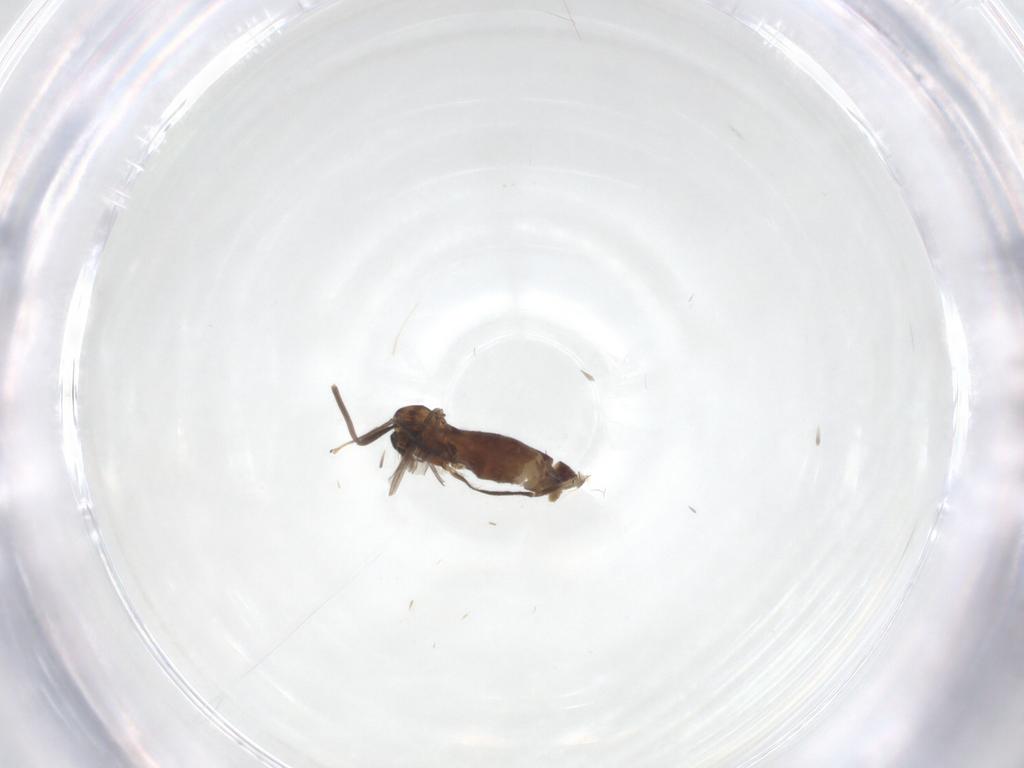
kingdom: Animalia
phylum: Arthropoda
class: Insecta
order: Diptera
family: Chironomidae
